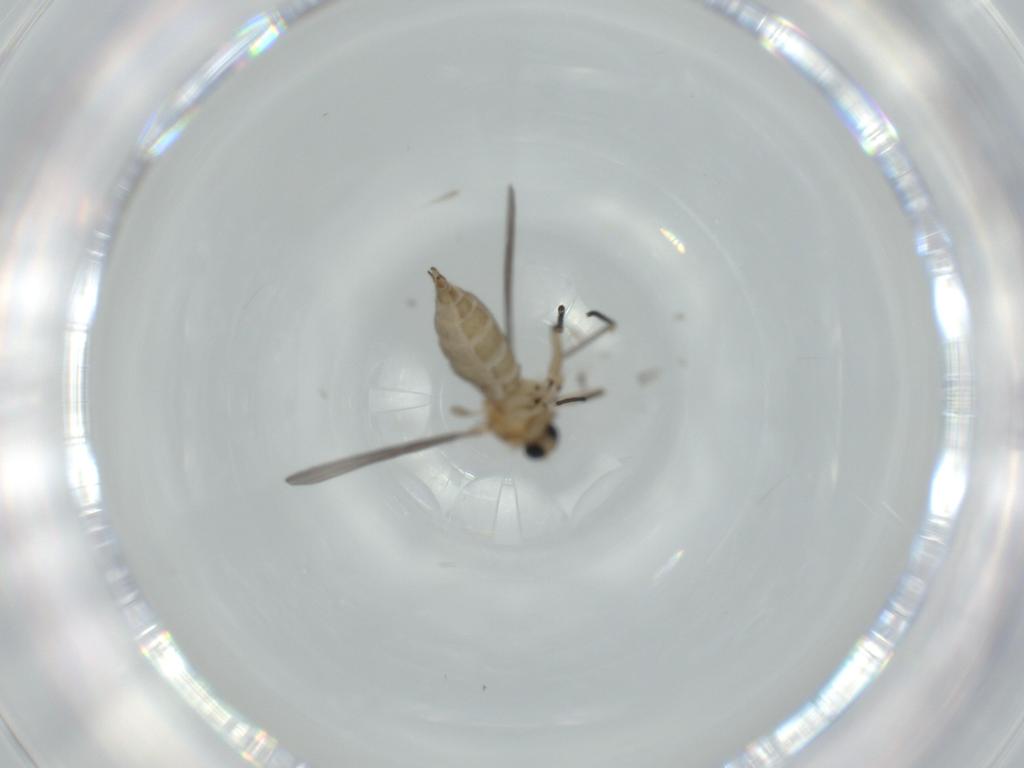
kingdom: Animalia
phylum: Arthropoda
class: Insecta
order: Diptera
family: Sciaridae
